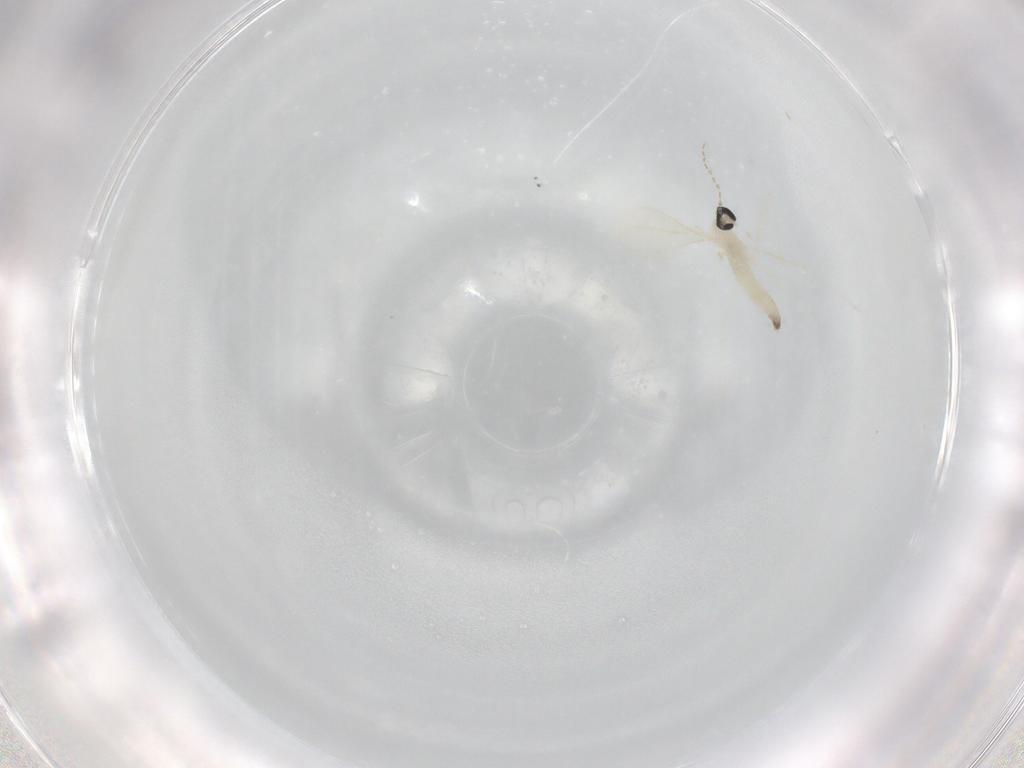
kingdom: Animalia
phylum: Arthropoda
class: Insecta
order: Diptera
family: Cecidomyiidae
